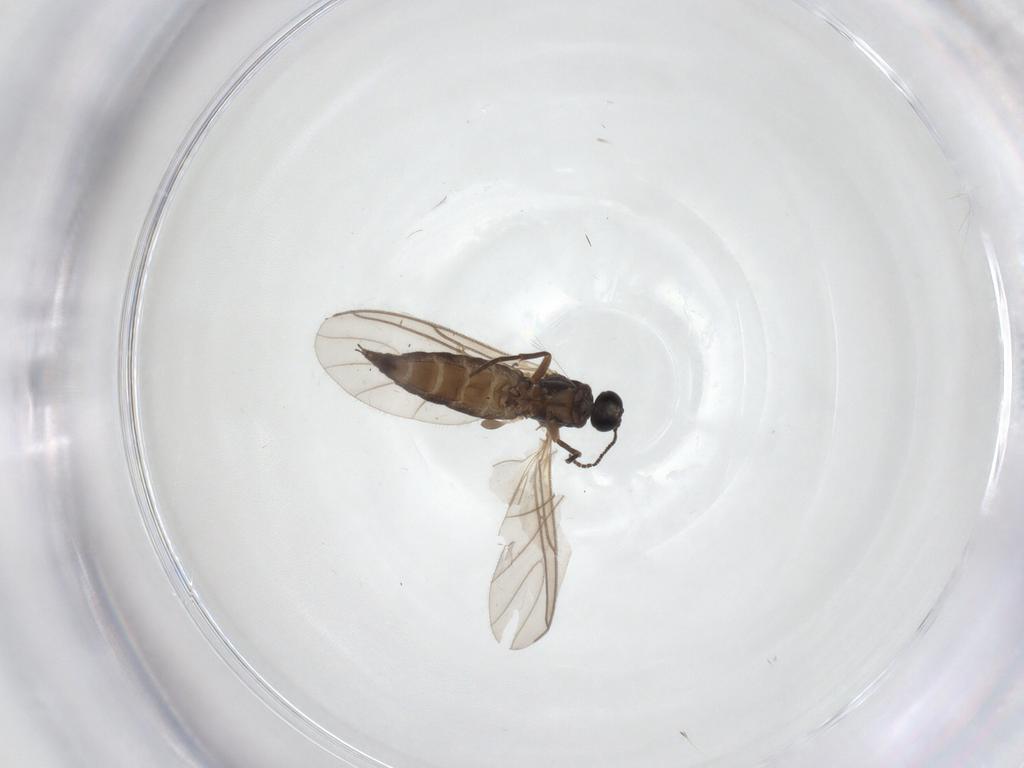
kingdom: Animalia
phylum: Arthropoda
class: Insecta
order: Diptera
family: Sciaridae
